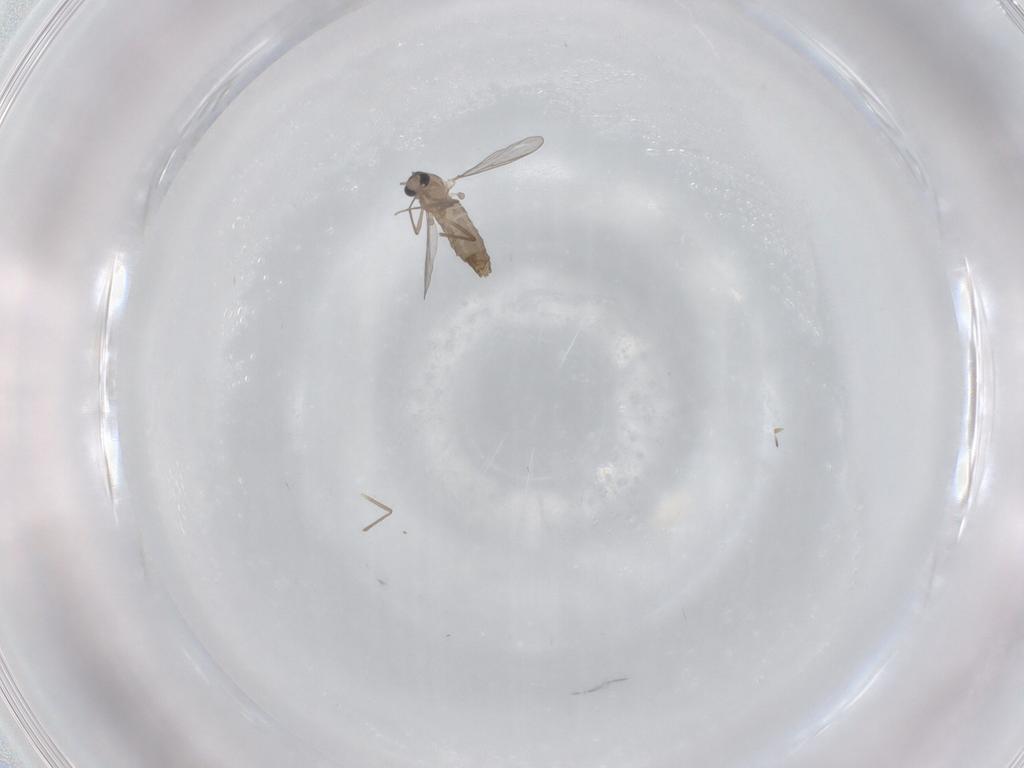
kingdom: Animalia
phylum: Arthropoda
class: Insecta
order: Diptera
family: Chironomidae
